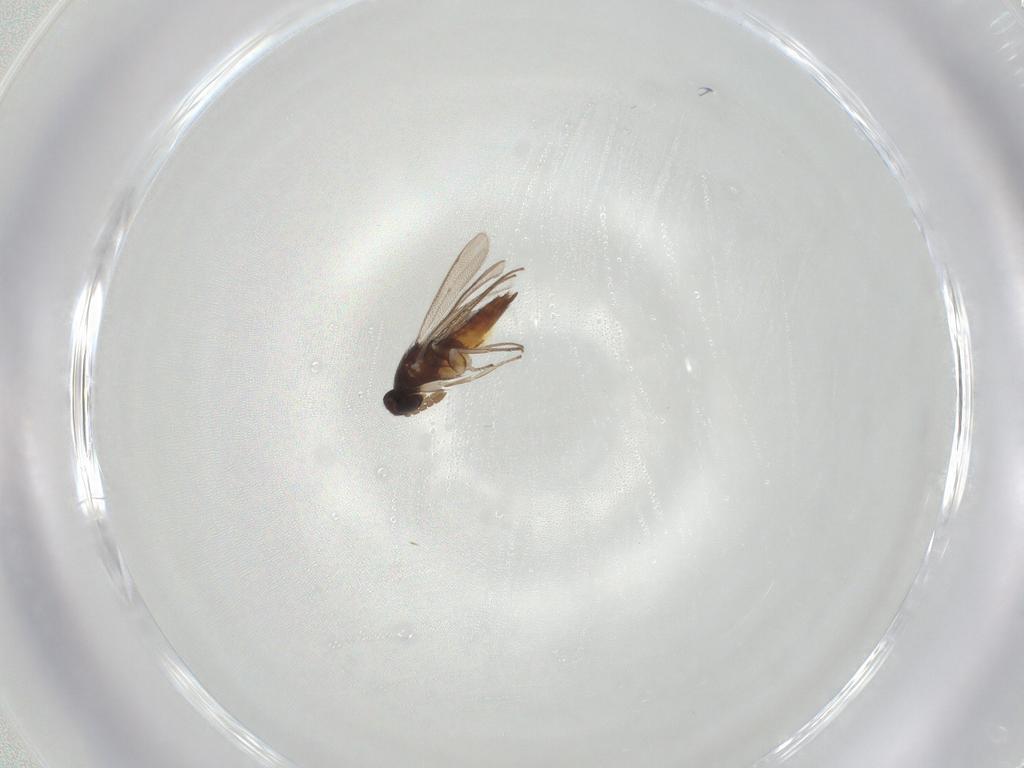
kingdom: Animalia
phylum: Arthropoda
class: Insecta
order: Hymenoptera
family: Eulophidae
